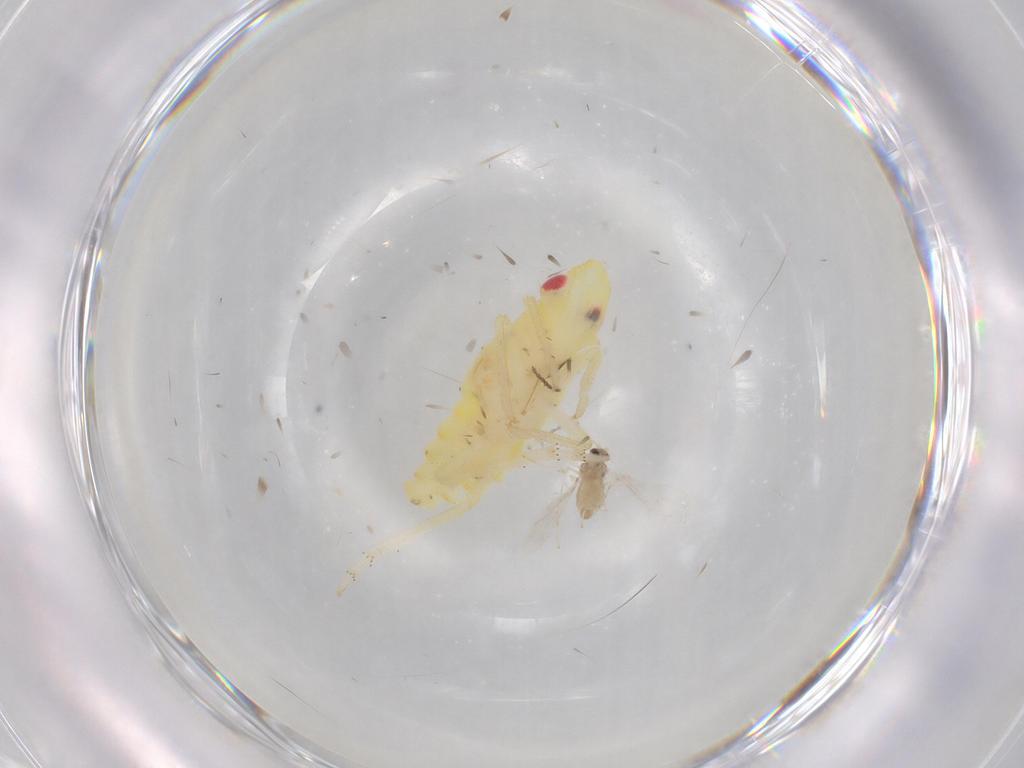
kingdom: Animalia
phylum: Arthropoda
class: Insecta
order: Diptera
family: Cecidomyiidae
